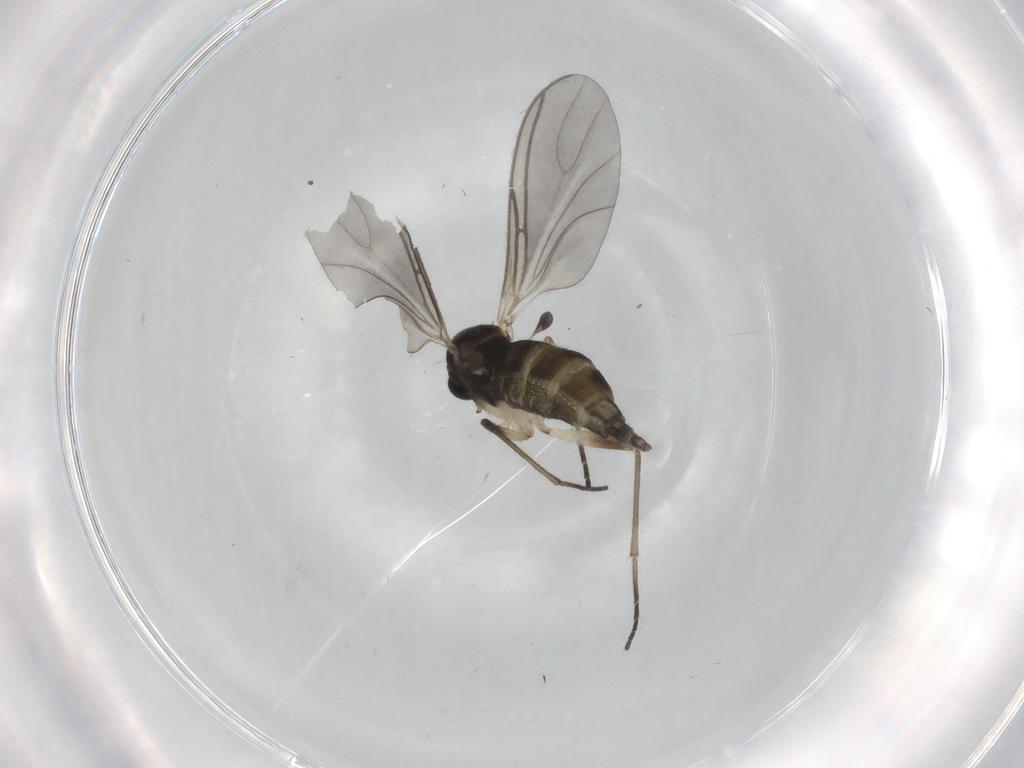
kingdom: Animalia
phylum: Arthropoda
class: Insecta
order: Diptera
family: Sciaridae
